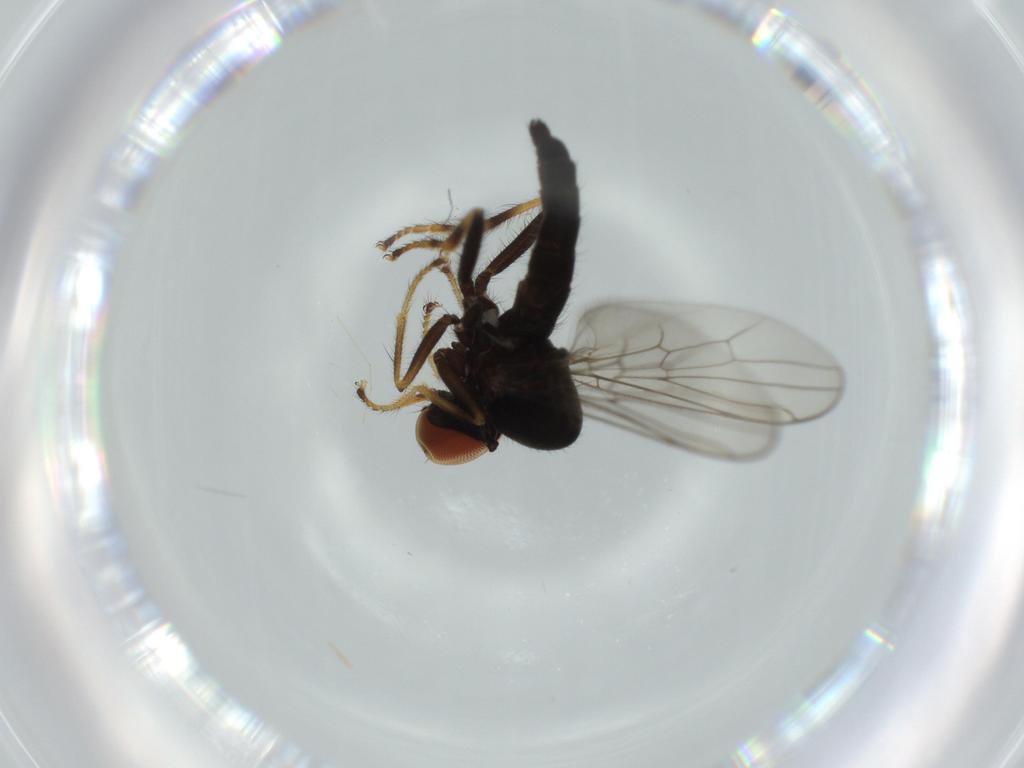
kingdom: Animalia
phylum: Arthropoda
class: Insecta
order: Diptera
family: Hybotidae
